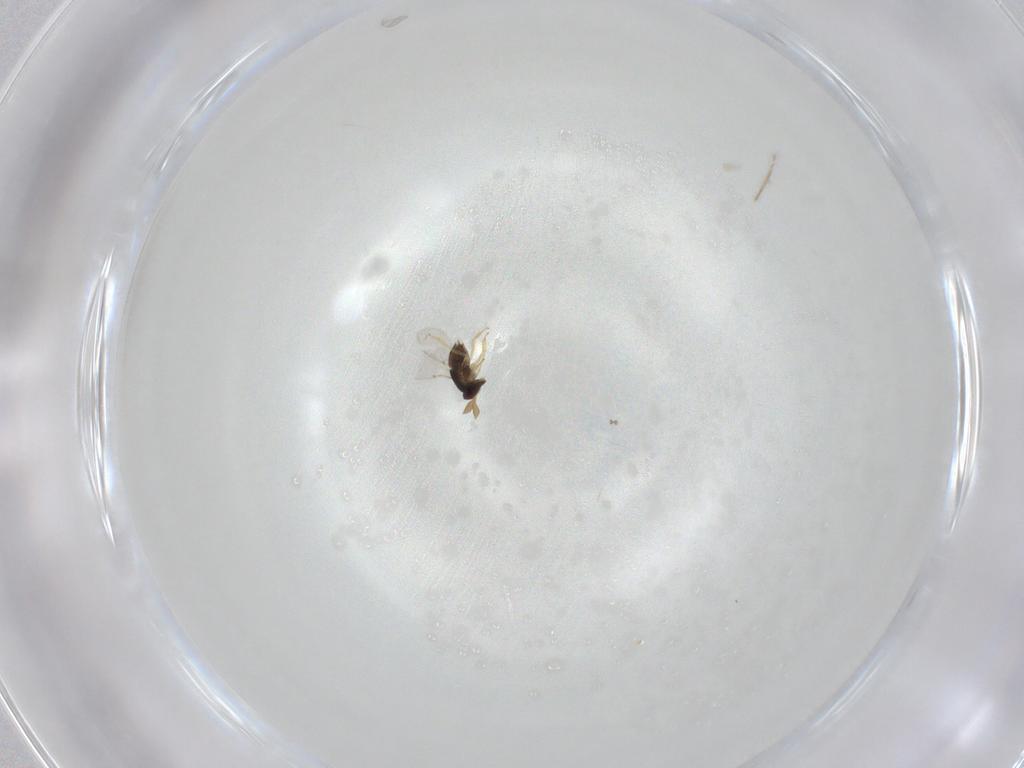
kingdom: Animalia
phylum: Arthropoda
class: Insecta
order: Hymenoptera
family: Encyrtidae
